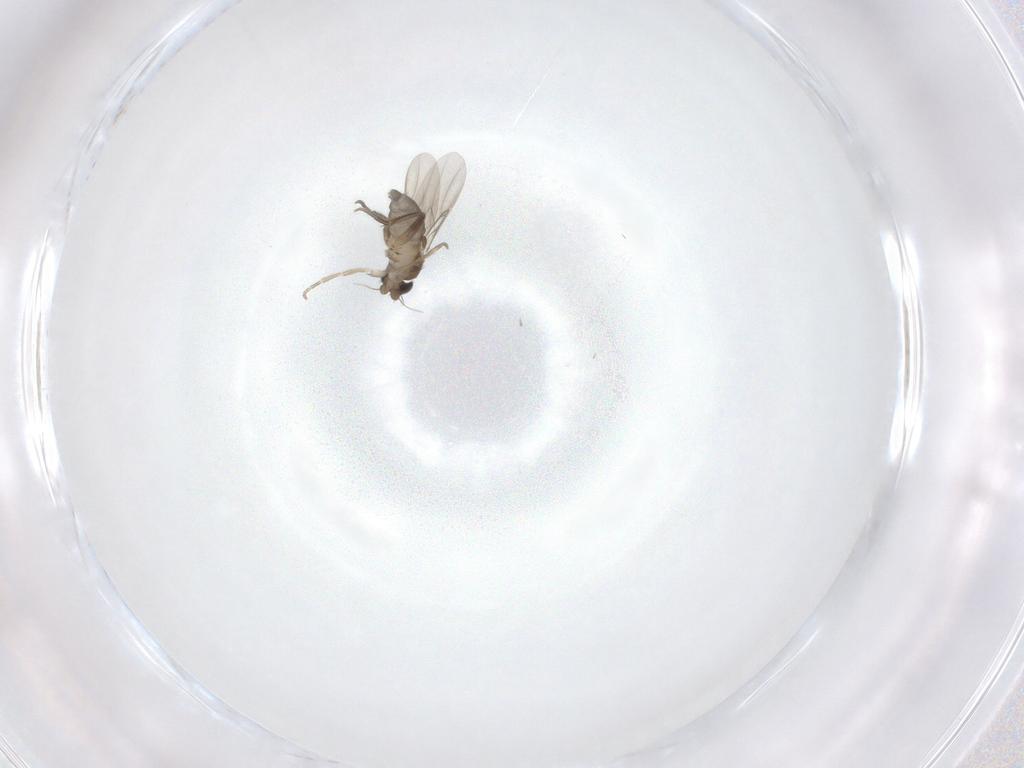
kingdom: Animalia
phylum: Arthropoda
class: Insecta
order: Diptera
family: Phoridae
